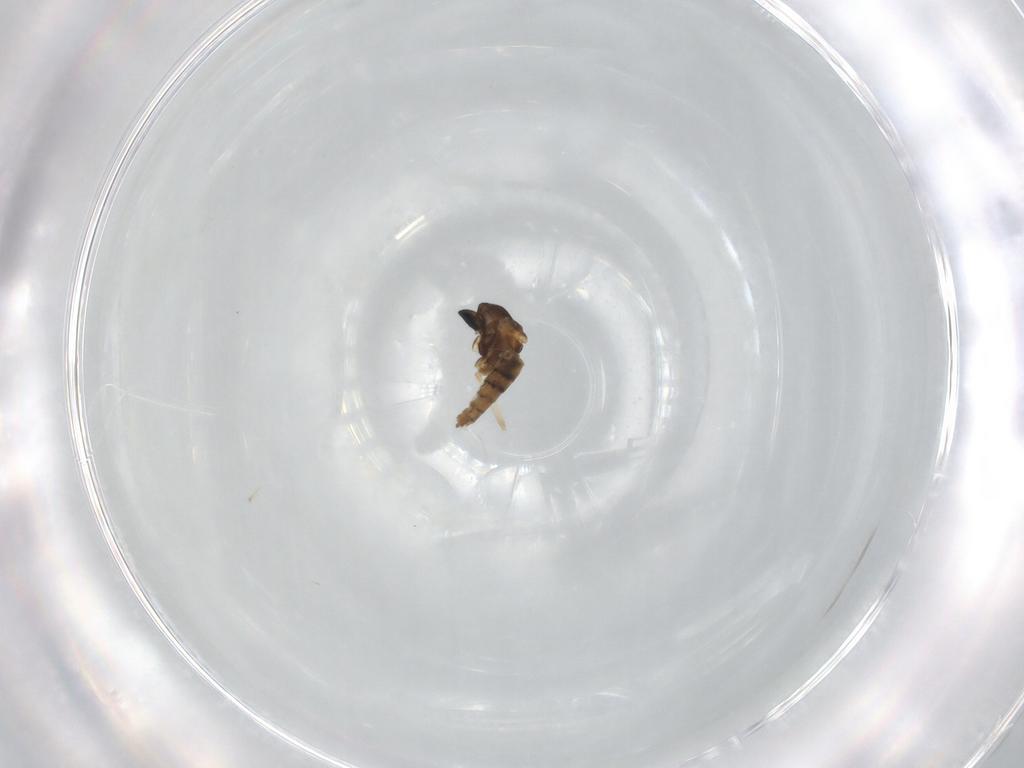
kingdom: Animalia
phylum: Arthropoda
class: Insecta
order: Diptera
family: Cecidomyiidae
